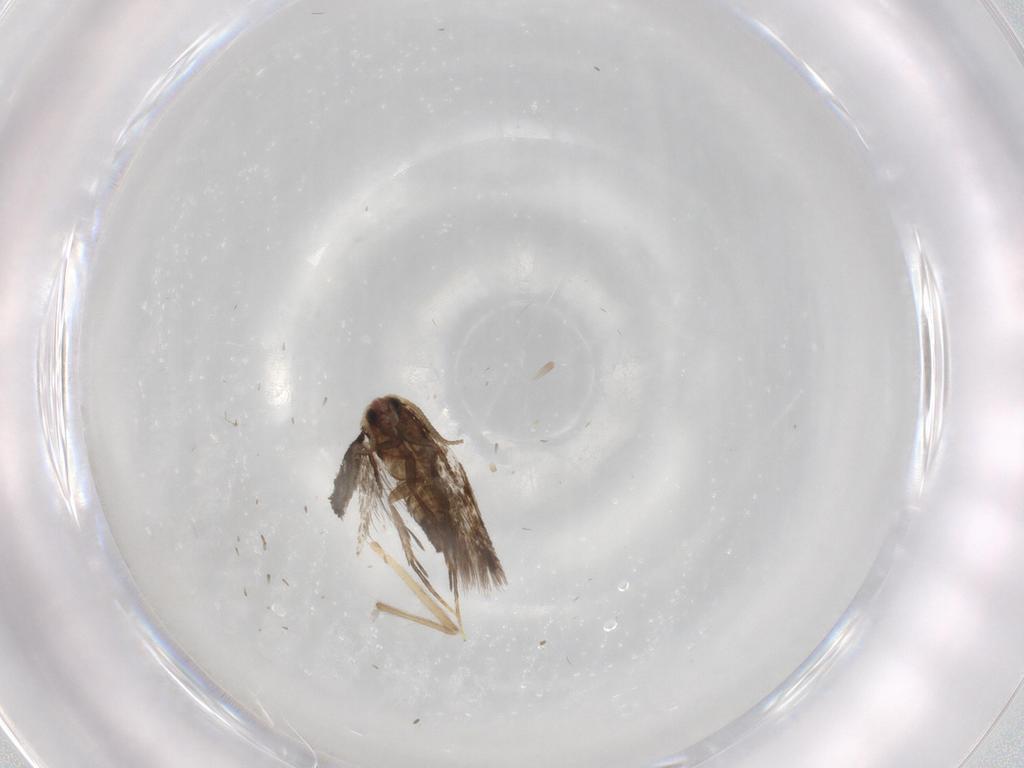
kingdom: Animalia
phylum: Arthropoda
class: Insecta
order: Lepidoptera
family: Nepticulidae
